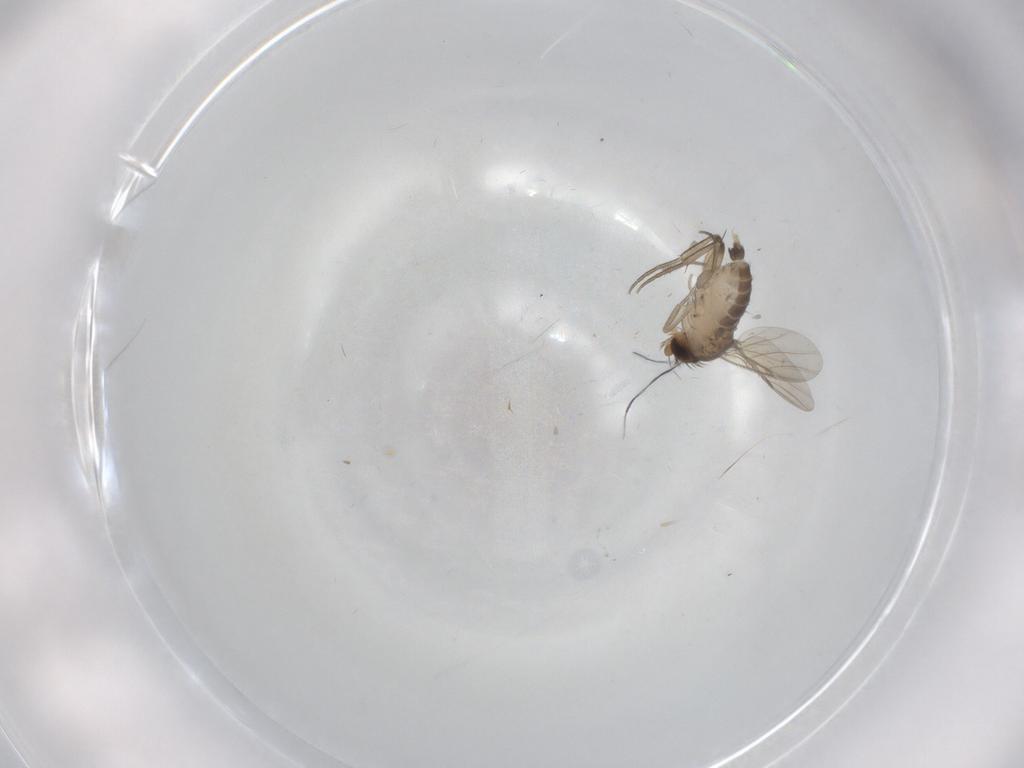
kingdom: Animalia
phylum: Arthropoda
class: Insecta
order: Diptera
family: Phoridae
